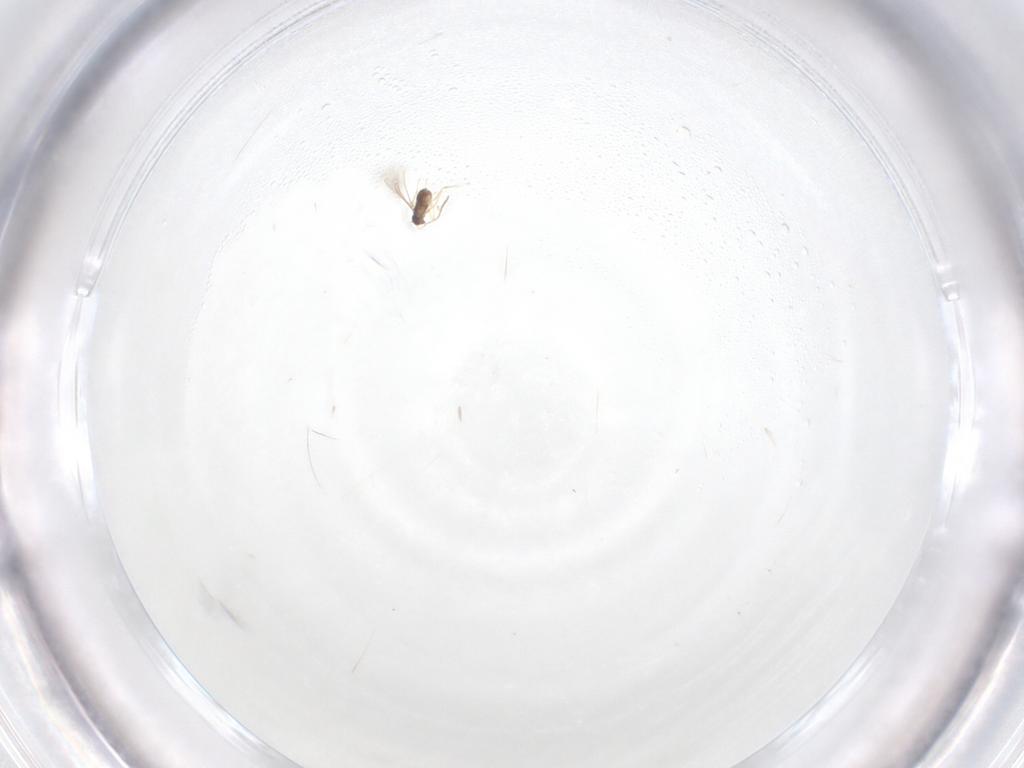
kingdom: Animalia
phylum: Arthropoda
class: Insecta
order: Hymenoptera
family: Mymaridae
